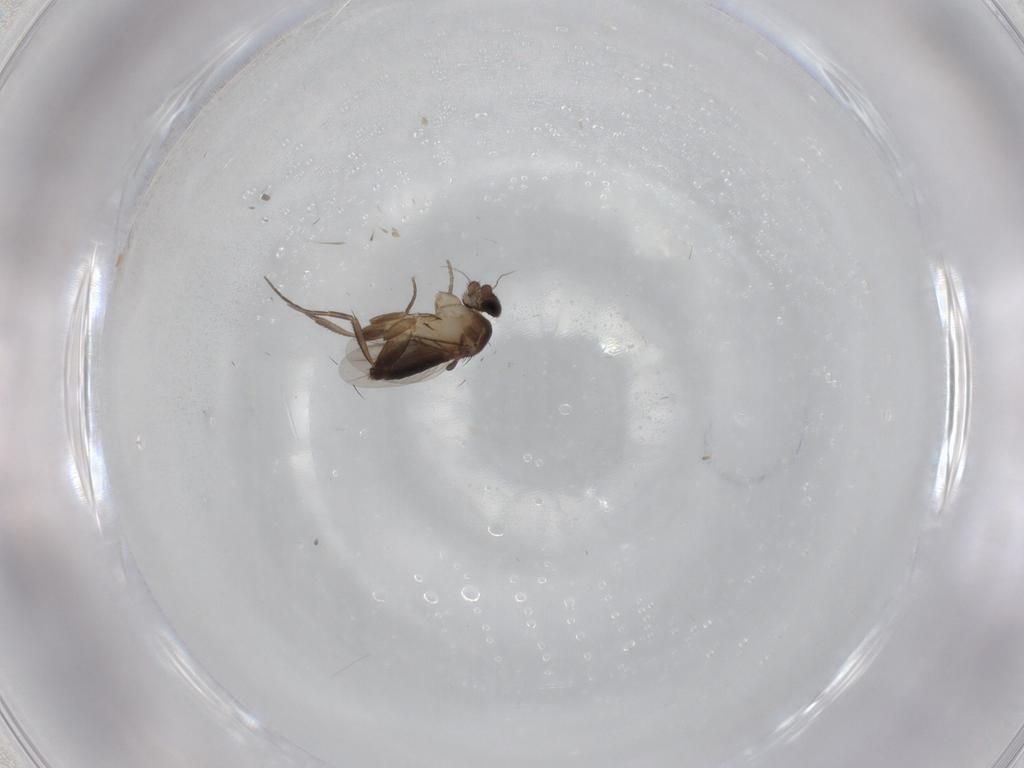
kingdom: Animalia
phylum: Arthropoda
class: Insecta
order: Diptera
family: Phoridae
